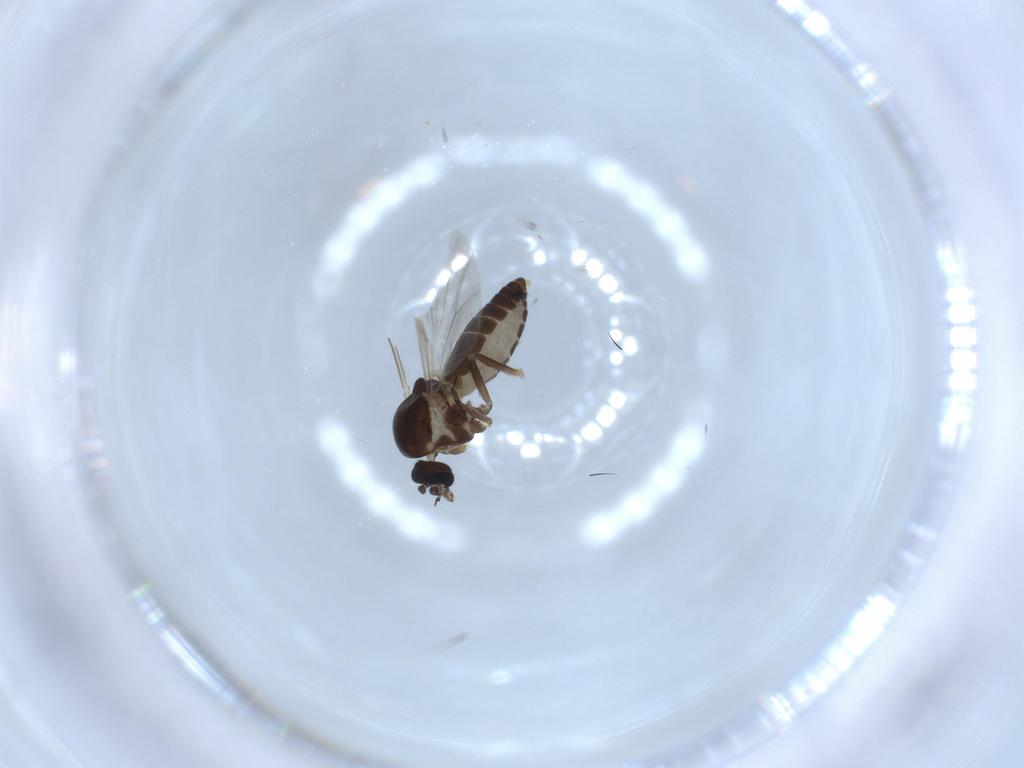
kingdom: Animalia
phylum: Arthropoda
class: Insecta
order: Diptera
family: Ceratopogonidae
